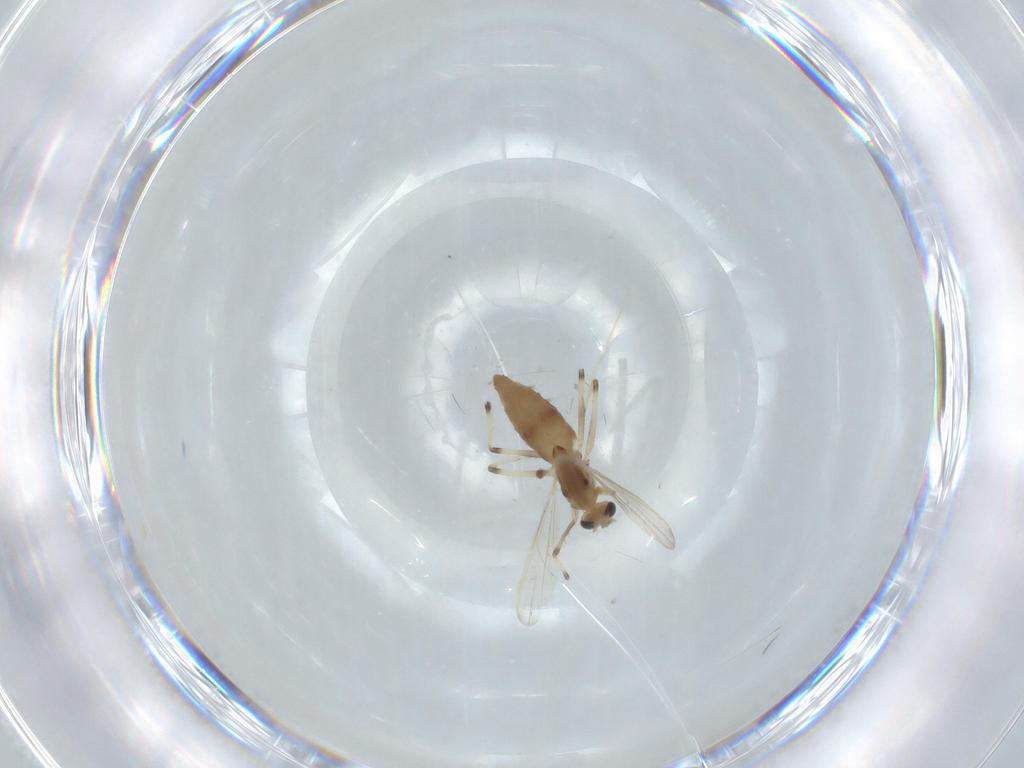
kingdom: Animalia
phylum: Arthropoda
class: Insecta
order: Diptera
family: Chironomidae
